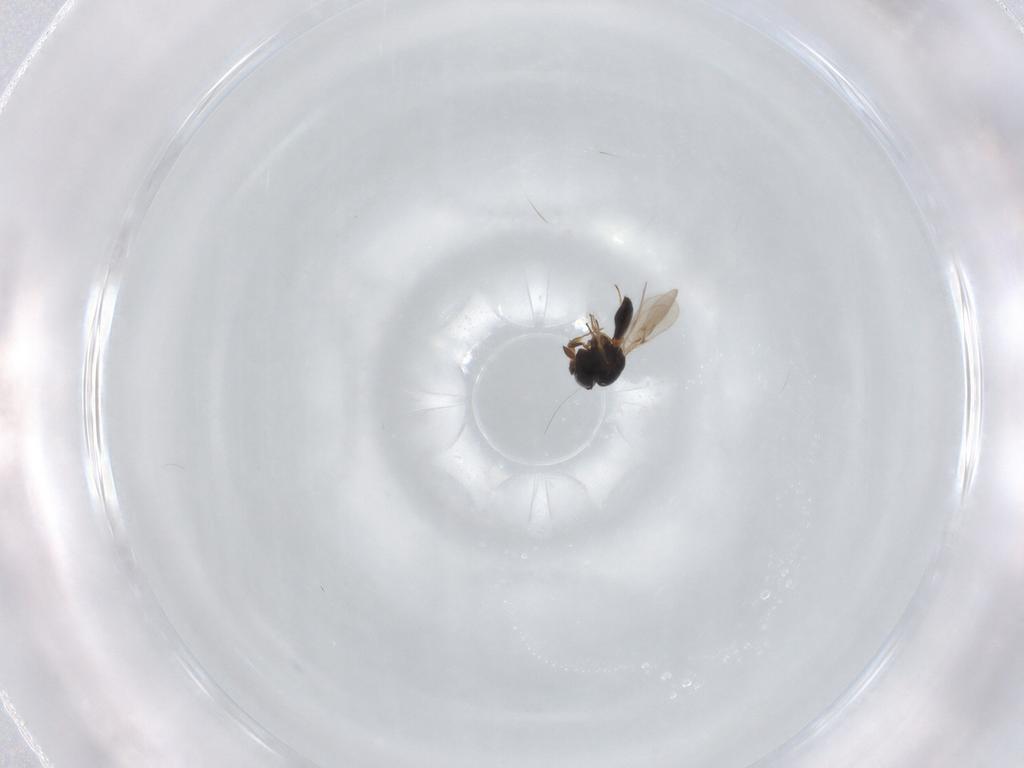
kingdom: Animalia
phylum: Arthropoda
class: Insecta
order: Hymenoptera
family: Scelionidae
